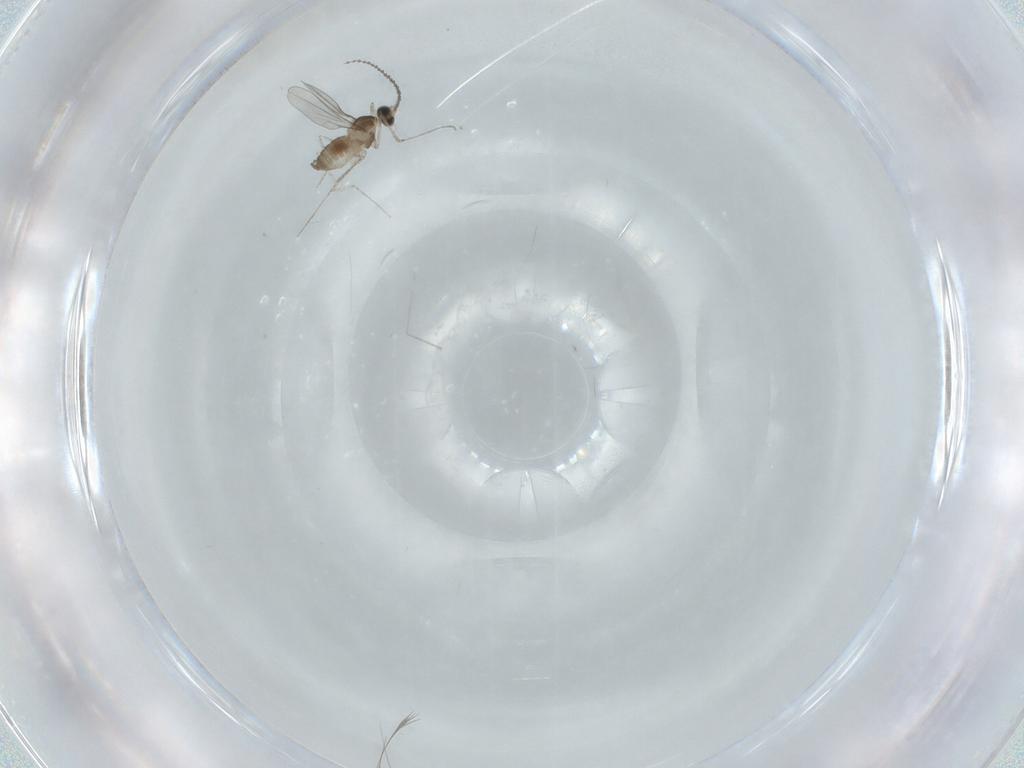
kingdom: Animalia
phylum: Arthropoda
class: Insecta
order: Diptera
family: Cecidomyiidae
